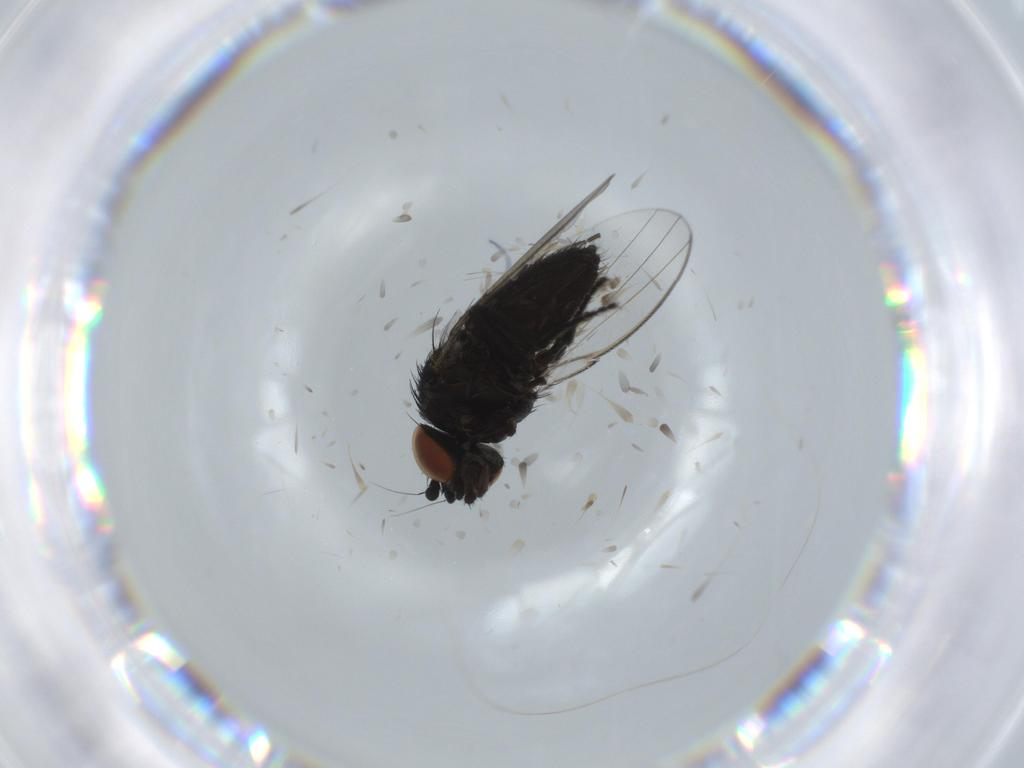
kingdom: Animalia
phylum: Arthropoda
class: Insecta
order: Diptera
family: Milichiidae
